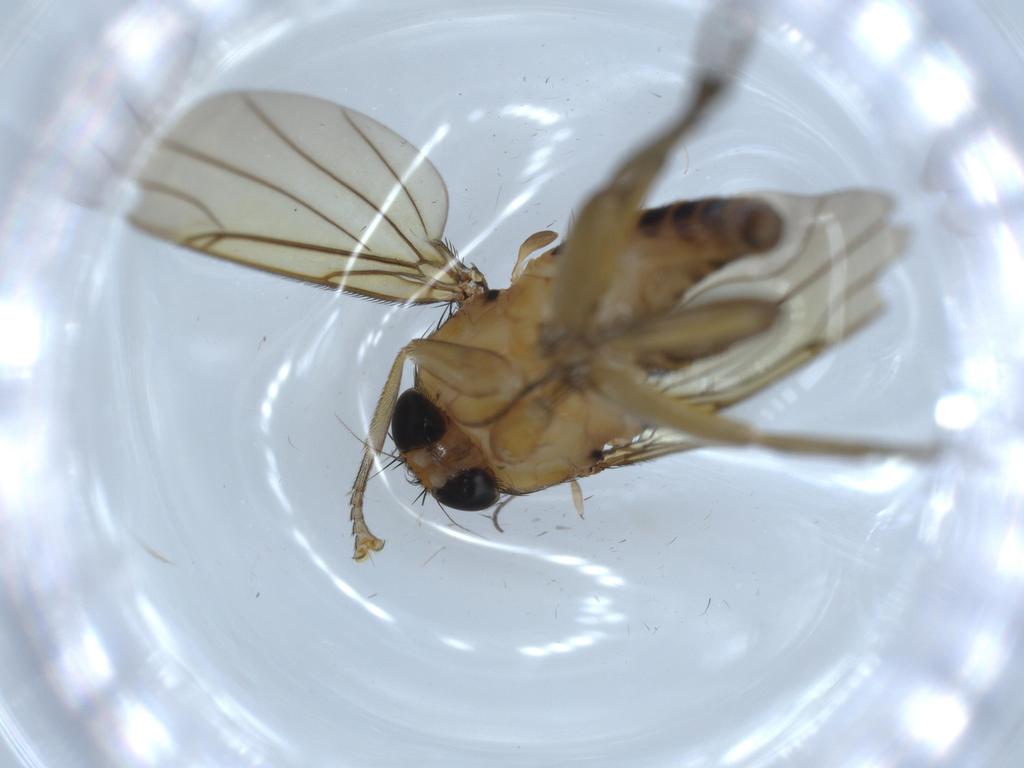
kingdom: Animalia
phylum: Arthropoda
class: Insecta
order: Diptera
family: Phoridae
